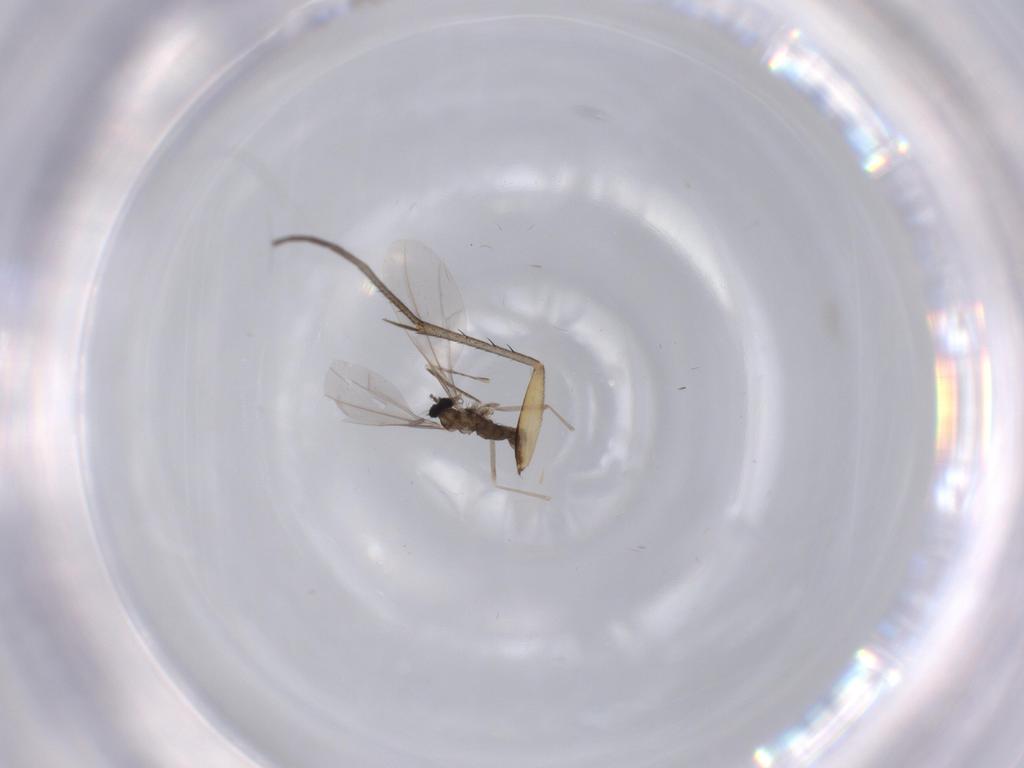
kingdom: Animalia
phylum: Arthropoda
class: Insecta
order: Diptera
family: Cecidomyiidae
